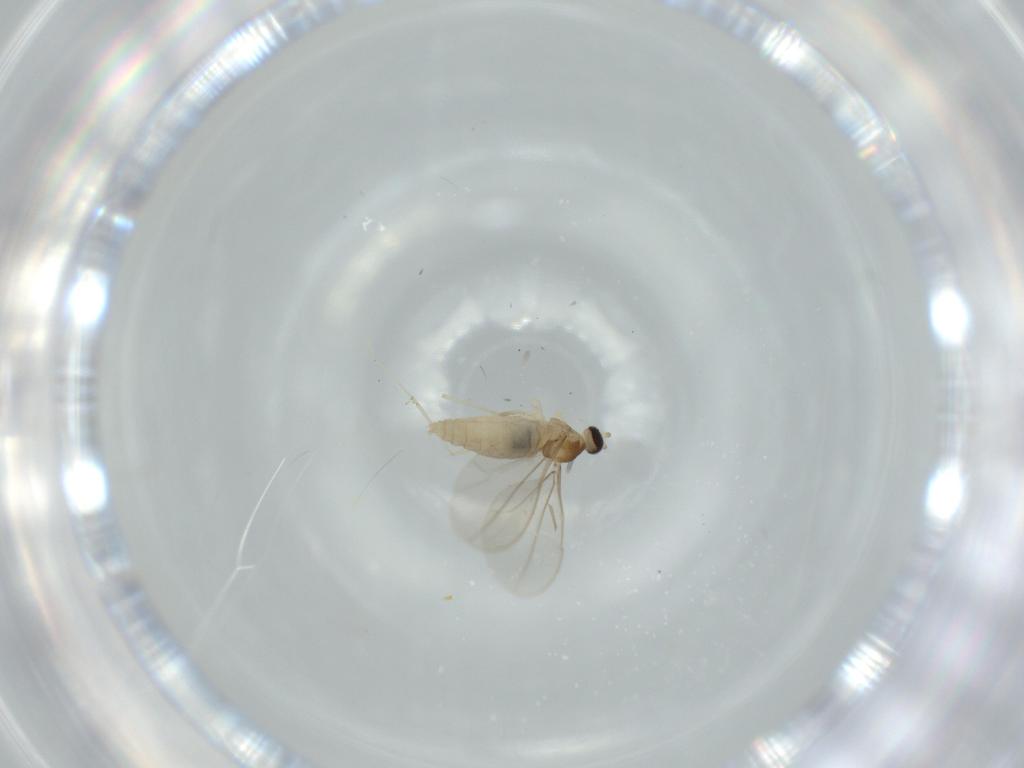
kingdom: Animalia
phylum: Arthropoda
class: Insecta
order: Diptera
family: Cecidomyiidae
